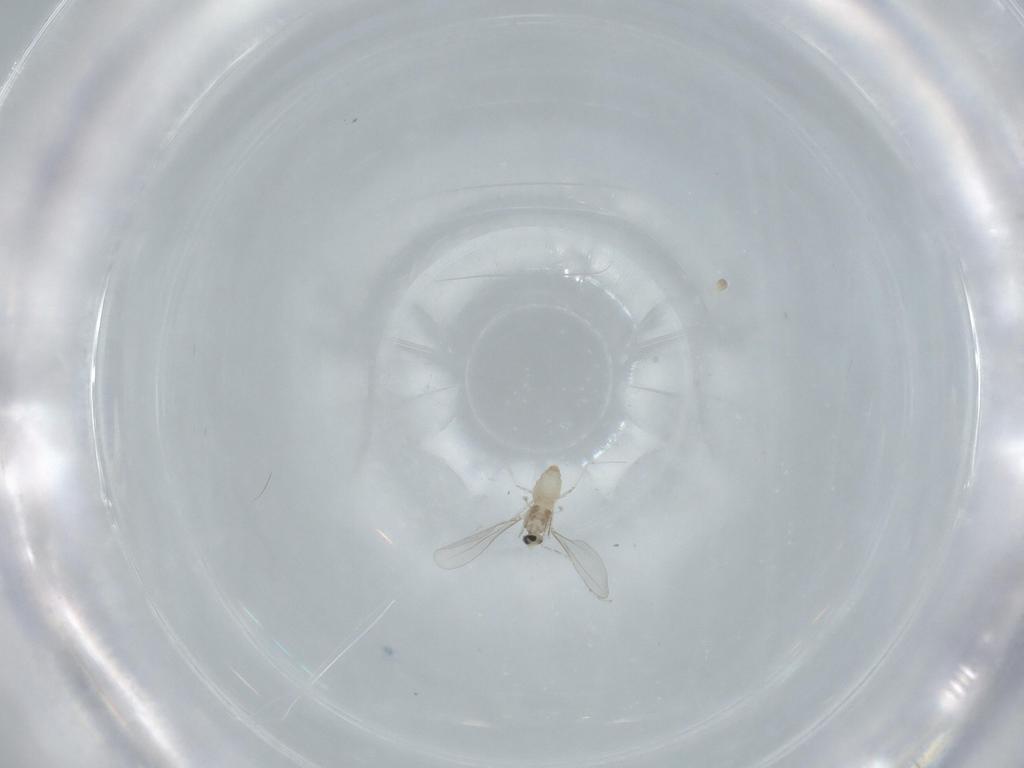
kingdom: Animalia
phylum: Arthropoda
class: Insecta
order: Diptera
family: Cecidomyiidae
